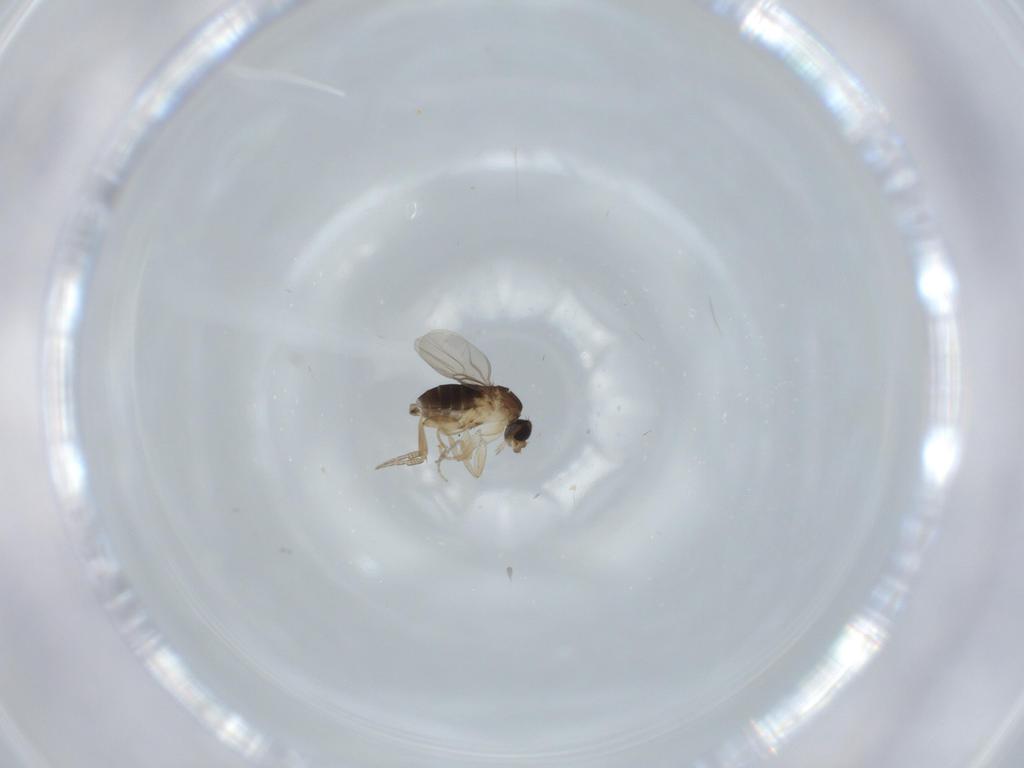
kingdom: Animalia
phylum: Arthropoda
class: Insecta
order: Diptera
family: Phoridae
